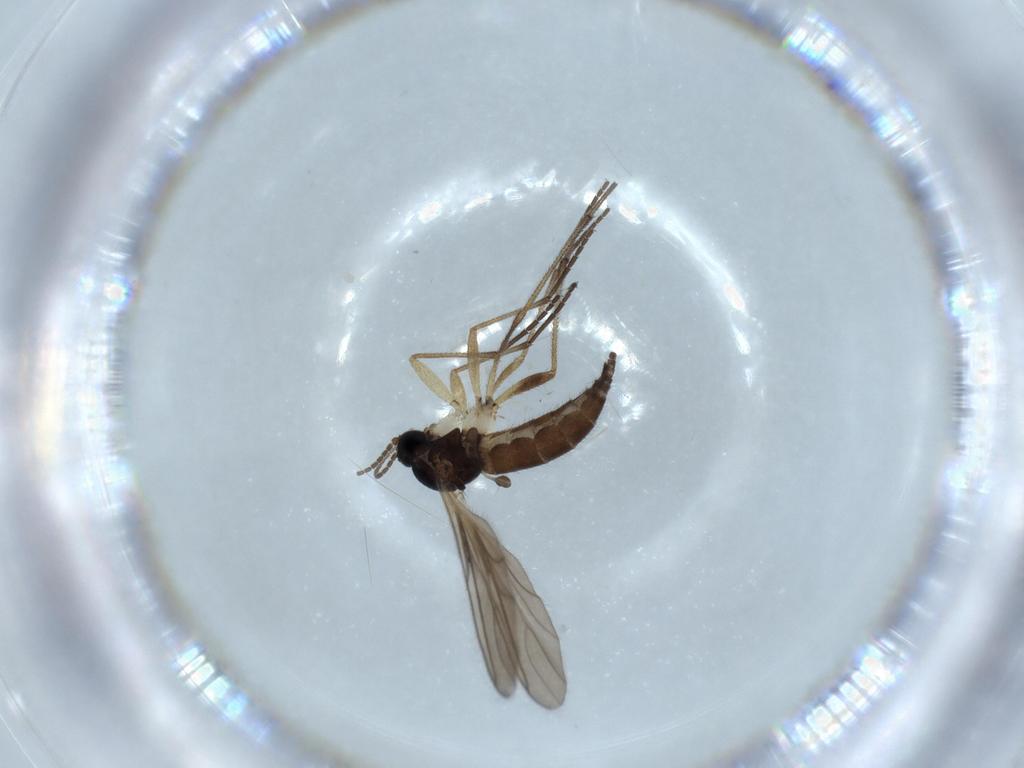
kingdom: Animalia
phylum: Arthropoda
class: Insecta
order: Diptera
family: Sciaridae
